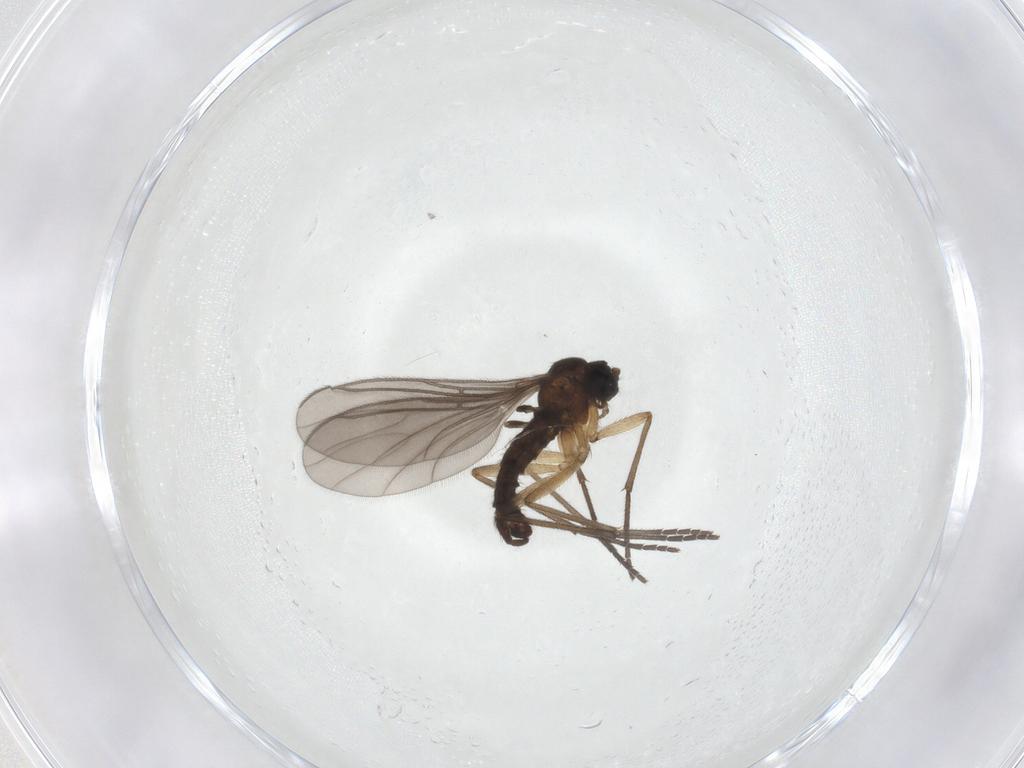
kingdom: Animalia
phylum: Arthropoda
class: Insecta
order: Diptera
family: Sciaridae
